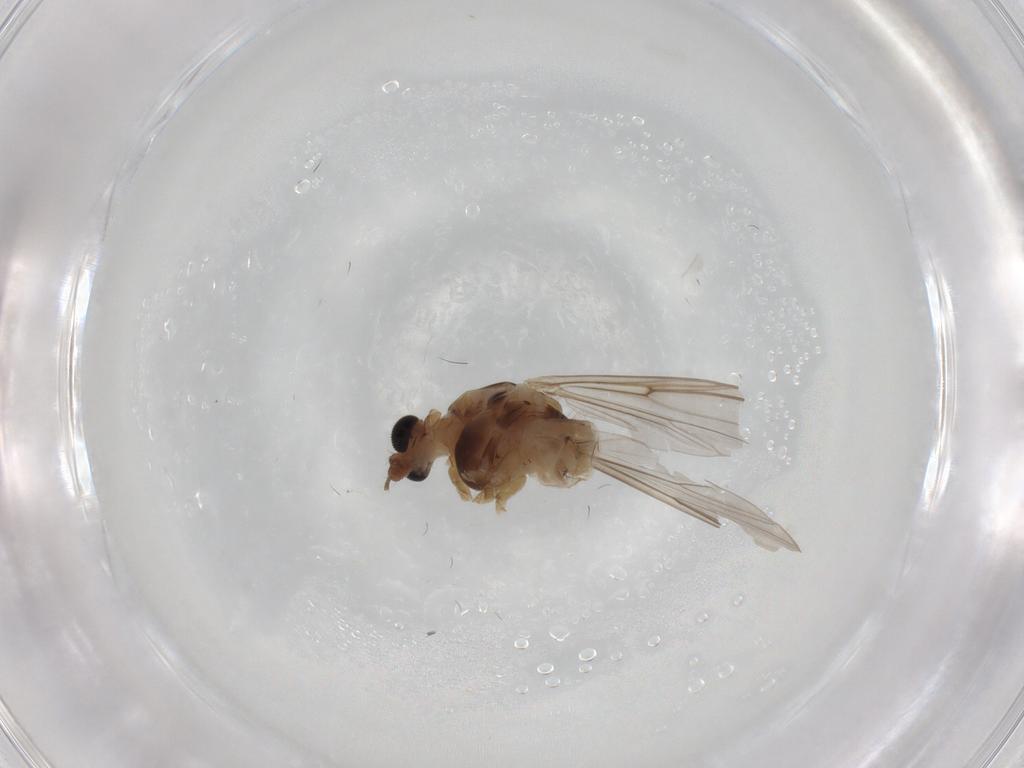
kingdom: Animalia
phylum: Arthropoda
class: Insecta
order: Diptera
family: Chironomidae
